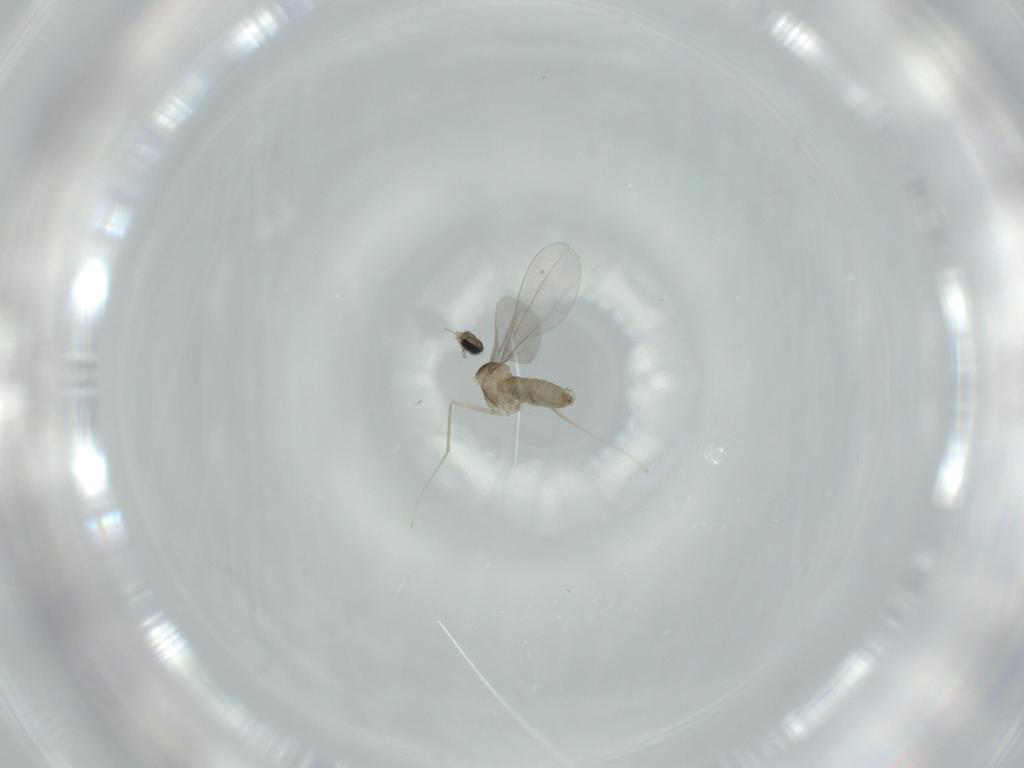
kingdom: Animalia
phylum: Arthropoda
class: Insecta
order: Diptera
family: Cecidomyiidae
